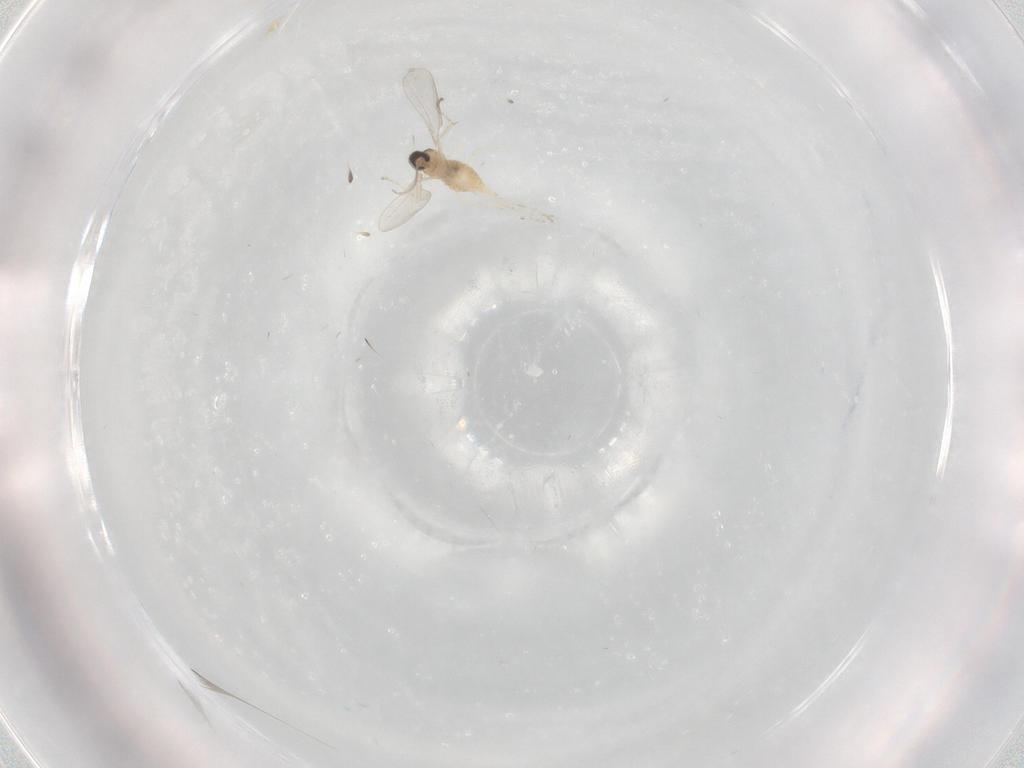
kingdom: Animalia
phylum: Arthropoda
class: Insecta
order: Diptera
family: Cecidomyiidae
